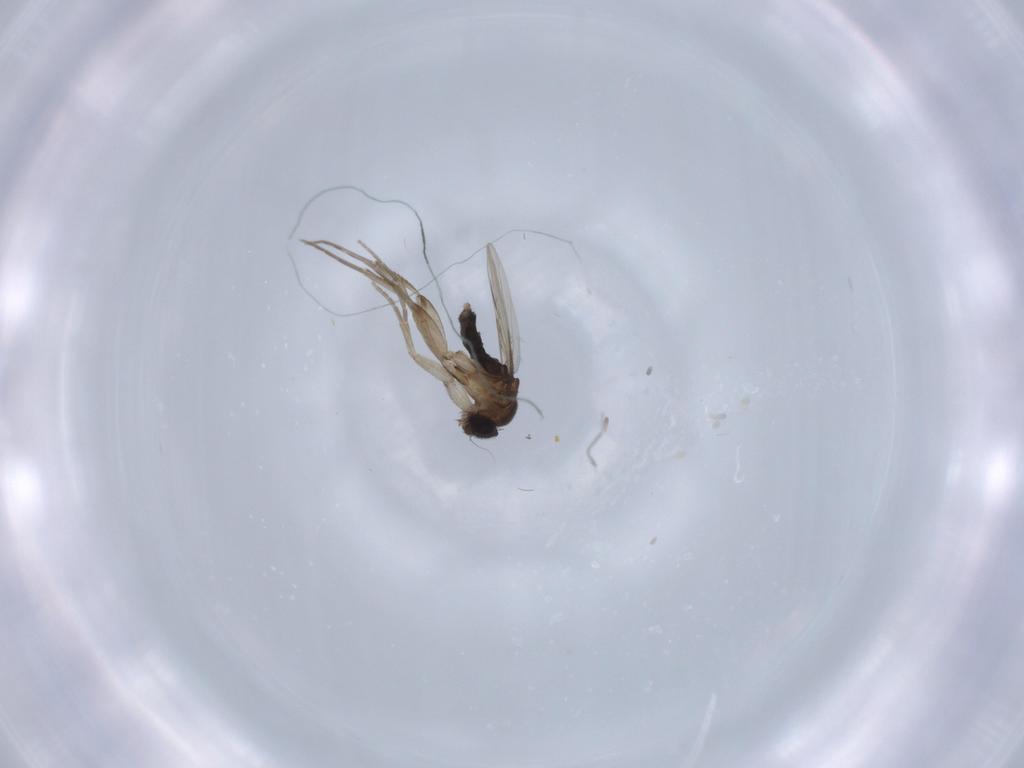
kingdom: Animalia
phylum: Arthropoda
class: Insecta
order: Diptera
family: Phoridae
